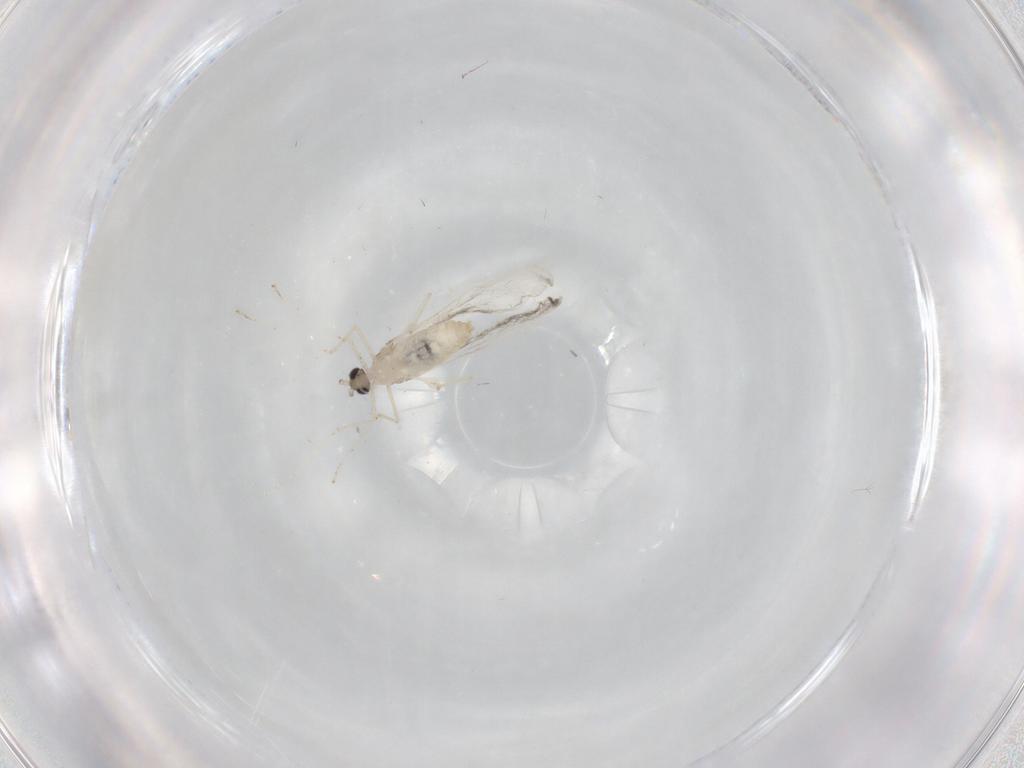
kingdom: Animalia
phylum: Arthropoda
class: Insecta
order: Diptera
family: Cecidomyiidae
